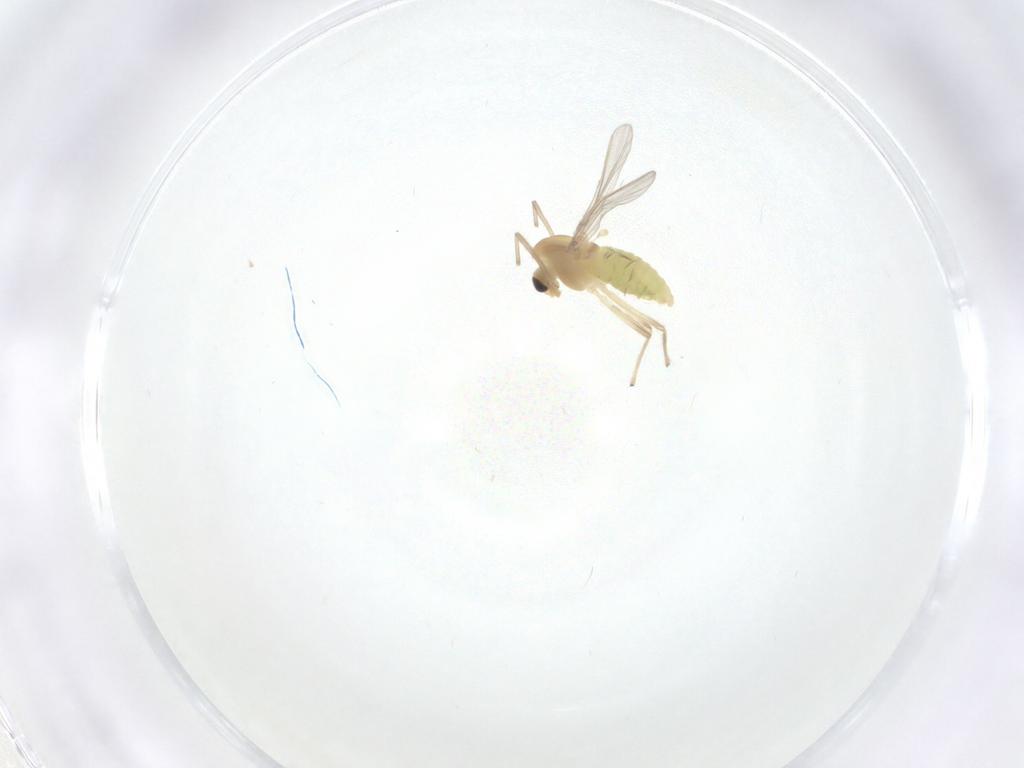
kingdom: Animalia
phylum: Arthropoda
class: Insecta
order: Diptera
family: Chironomidae
